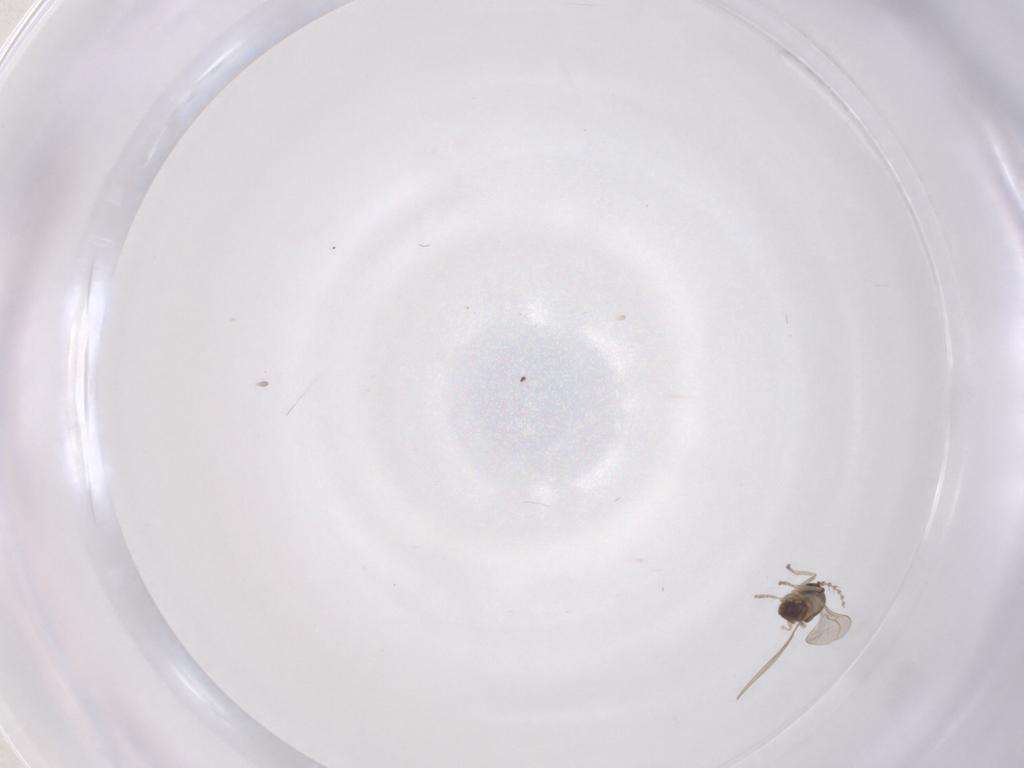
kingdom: Animalia
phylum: Arthropoda
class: Insecta
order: Diptera
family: Cecidomyiidae
